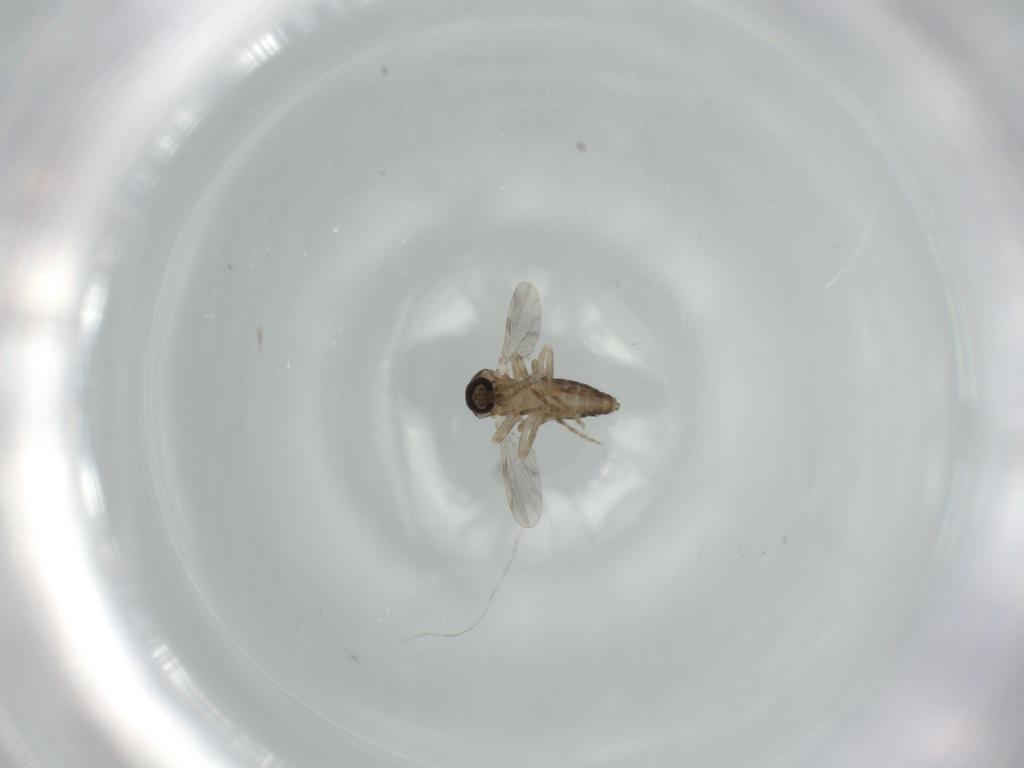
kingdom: Animalia
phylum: Arthropoda
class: Insecta
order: Diptera
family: Ceratopogonidae
